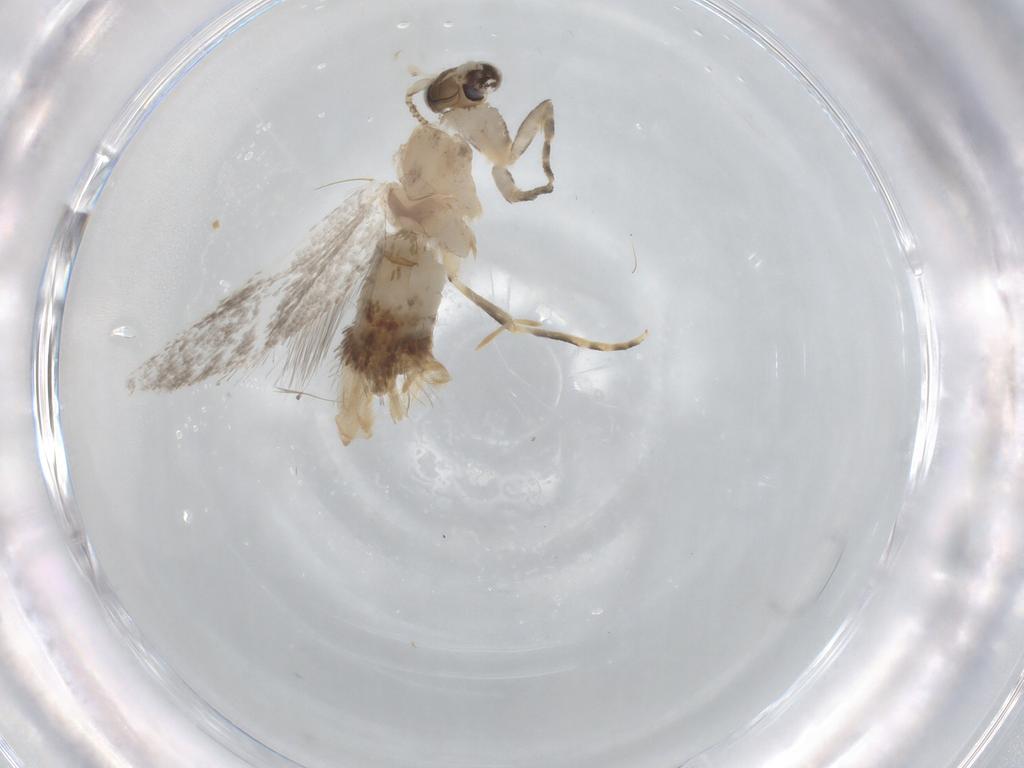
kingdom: Animalia
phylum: Arthropoda
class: Insecta
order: Lepidoptera
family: Tineidae
